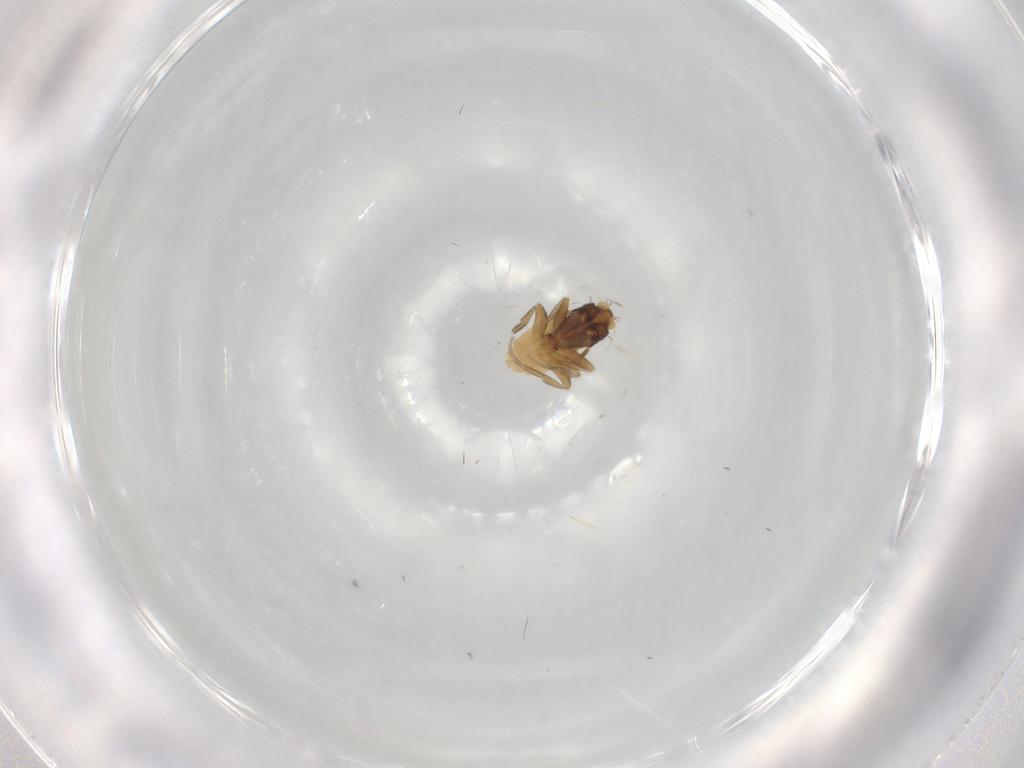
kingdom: Animalia
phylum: Arthropoda
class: Insecta
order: Diptera
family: Phoridae
